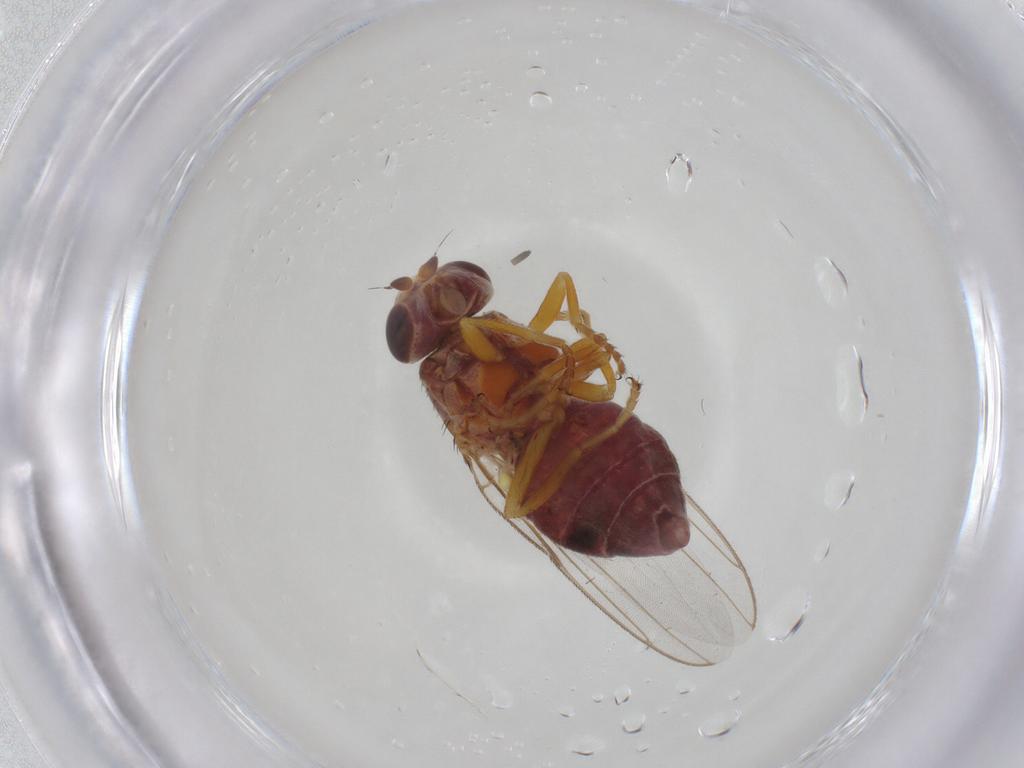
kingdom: Animalia
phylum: Arthropoda
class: Insecta
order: Diptera
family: Chloropidae
